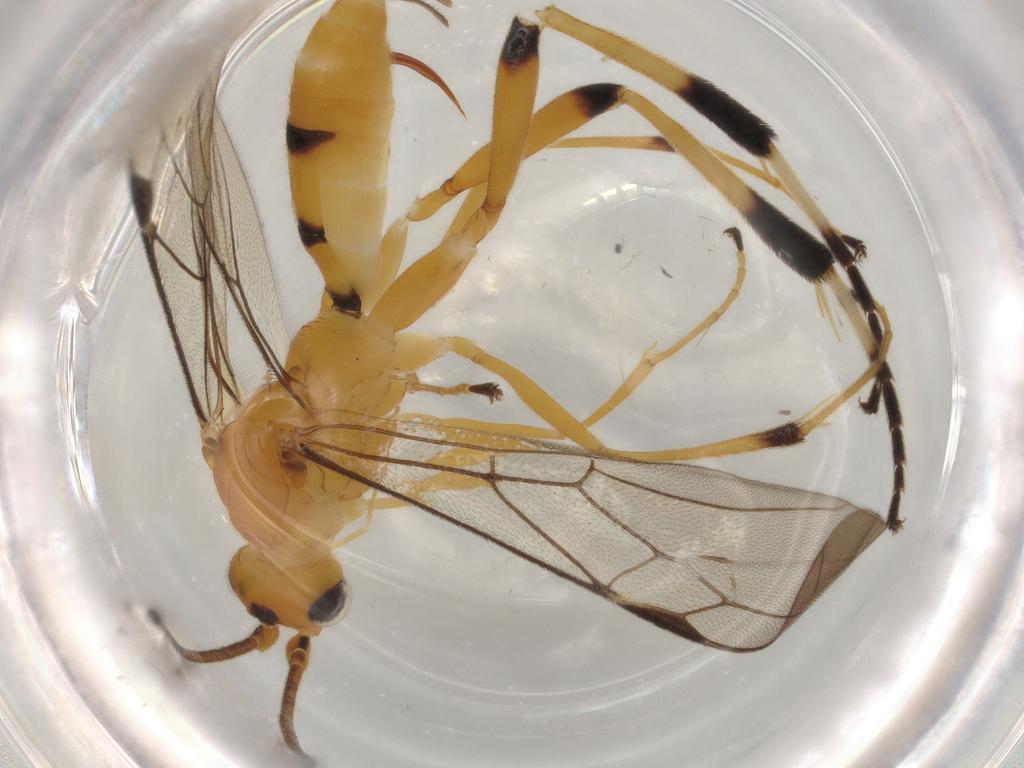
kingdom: Animalia
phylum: Arthropoda
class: Insecta
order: Hymenoptera
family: Braconidae
